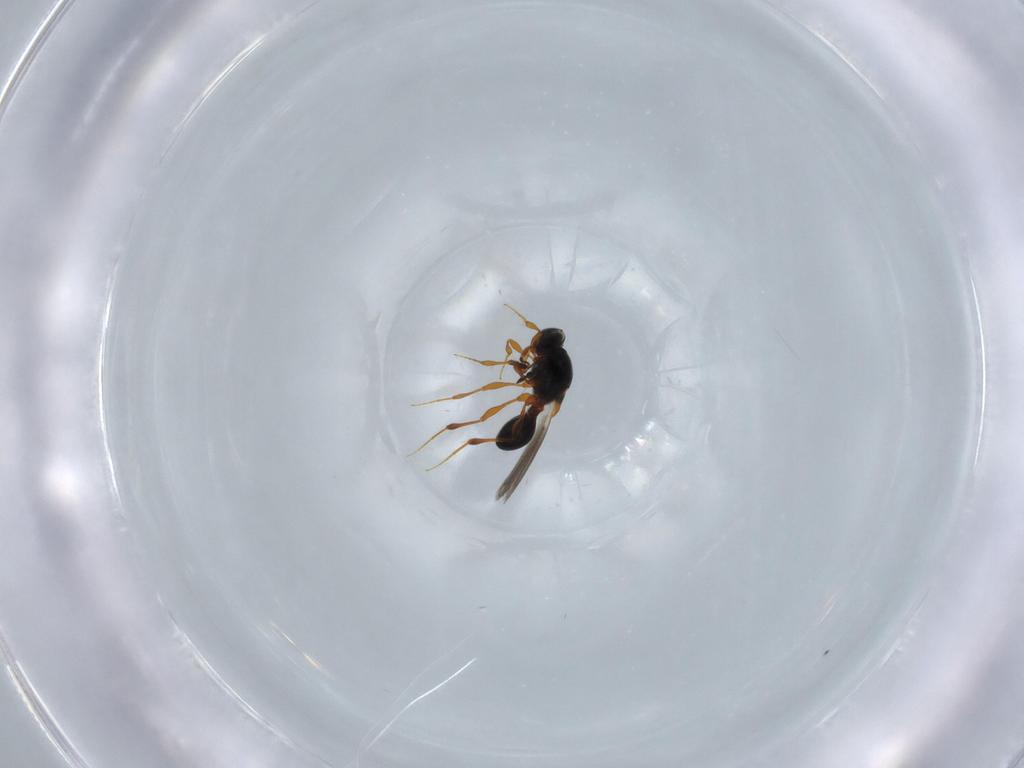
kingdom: Animalia
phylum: Arthropoda
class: Insecta
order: Hymenoptera
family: Platygastridae
